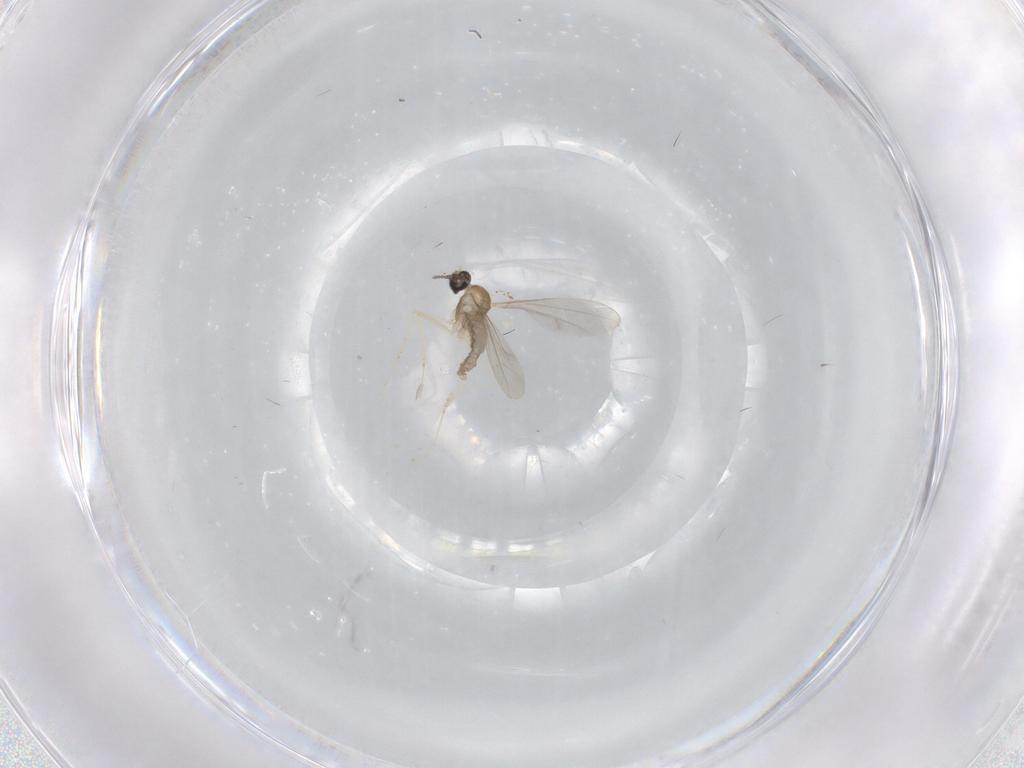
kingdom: Animalia
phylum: Arthropoda
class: Insecta
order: Diptera
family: Cecidomyiidae
